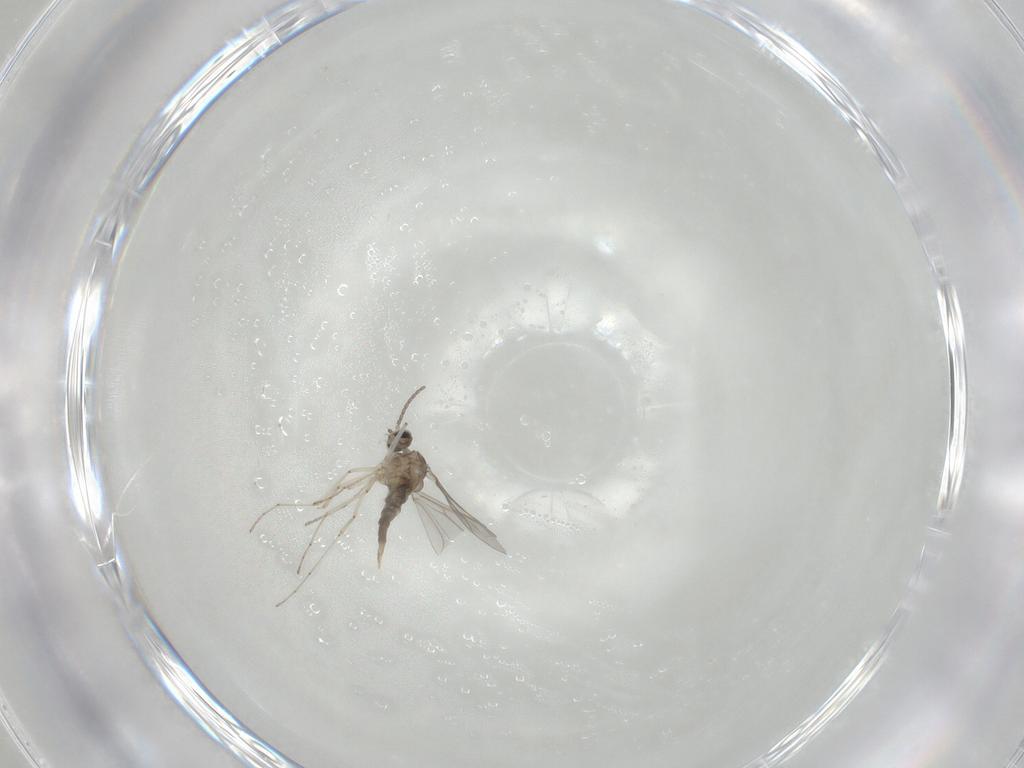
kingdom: Animalia
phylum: Arthropoda
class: Insecta
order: Diptera
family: Cecidomyiidae
